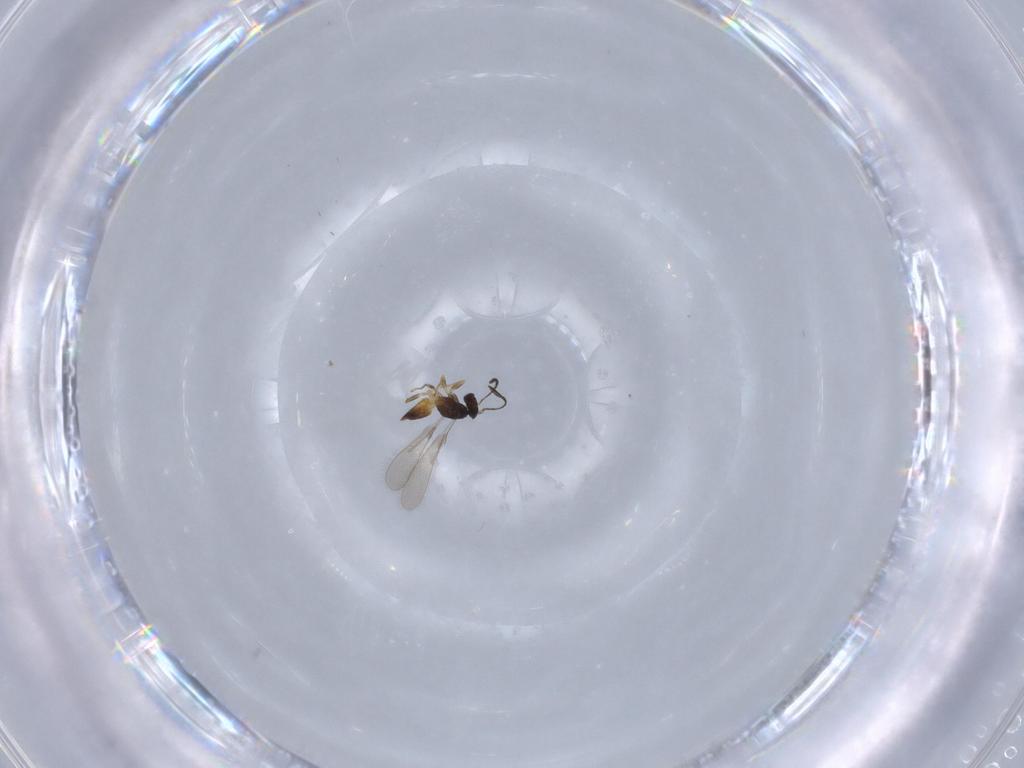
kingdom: Animalia
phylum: Arthropoda
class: Insecta
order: Hymenoptera
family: Mymaridae
